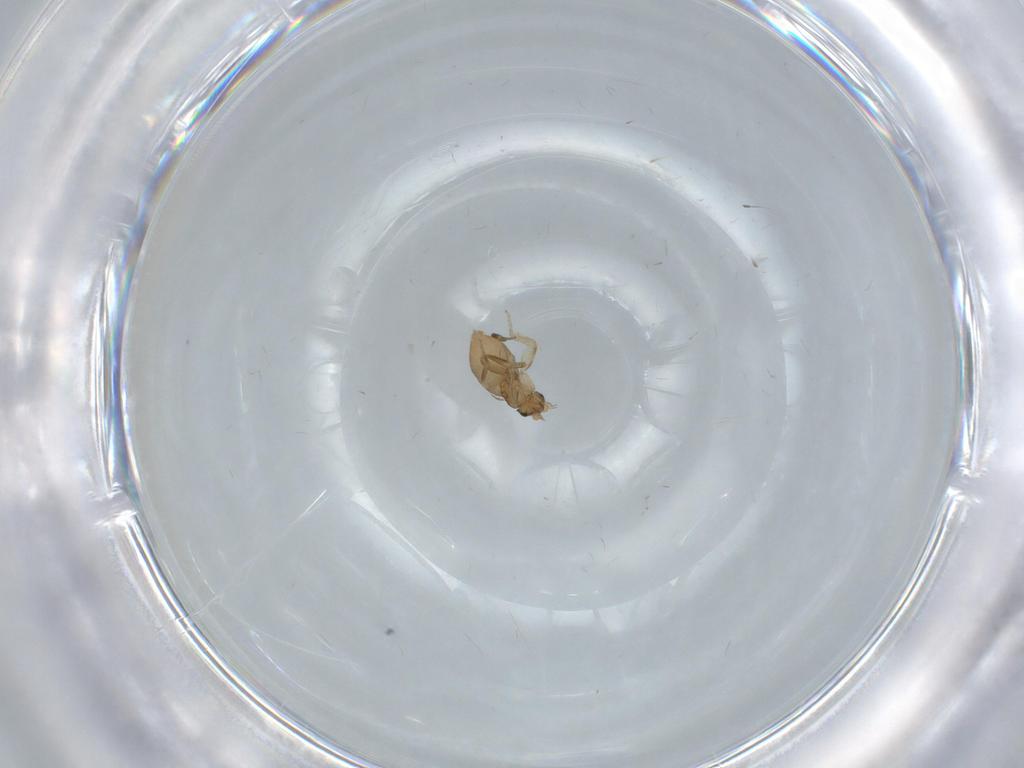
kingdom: Animalia
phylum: Arthropoda
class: Insecta
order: Diptera
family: Phoridae
